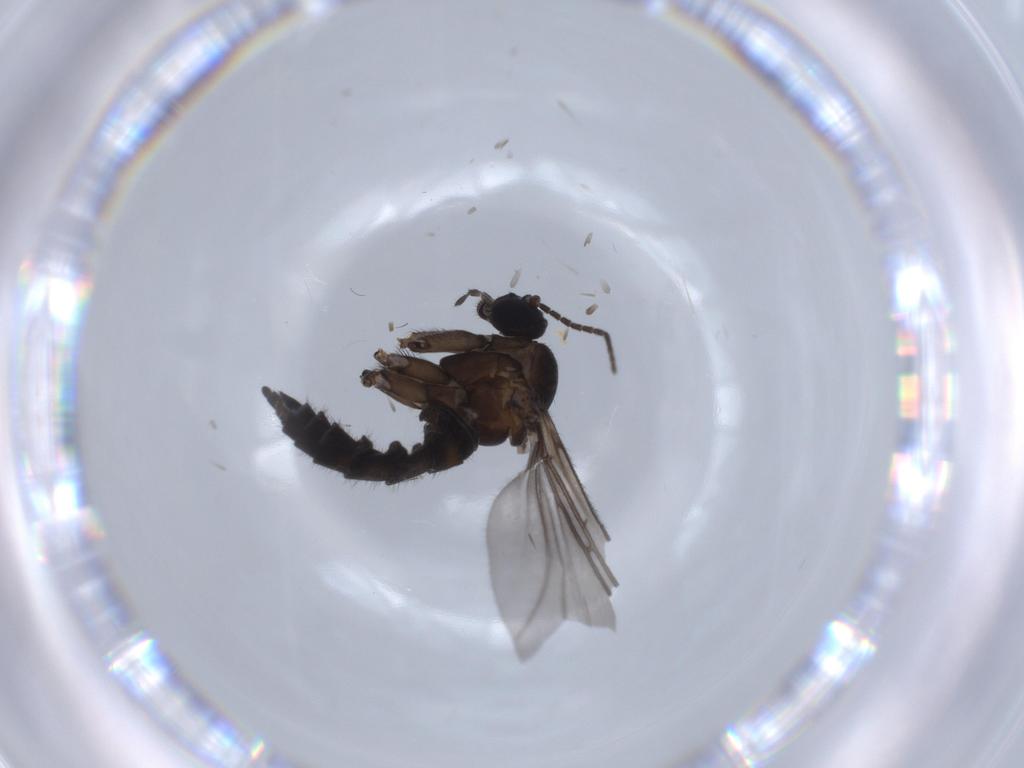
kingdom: Animalia
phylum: Arthropoda
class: Insecta
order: Diptera
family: Sciaridae
